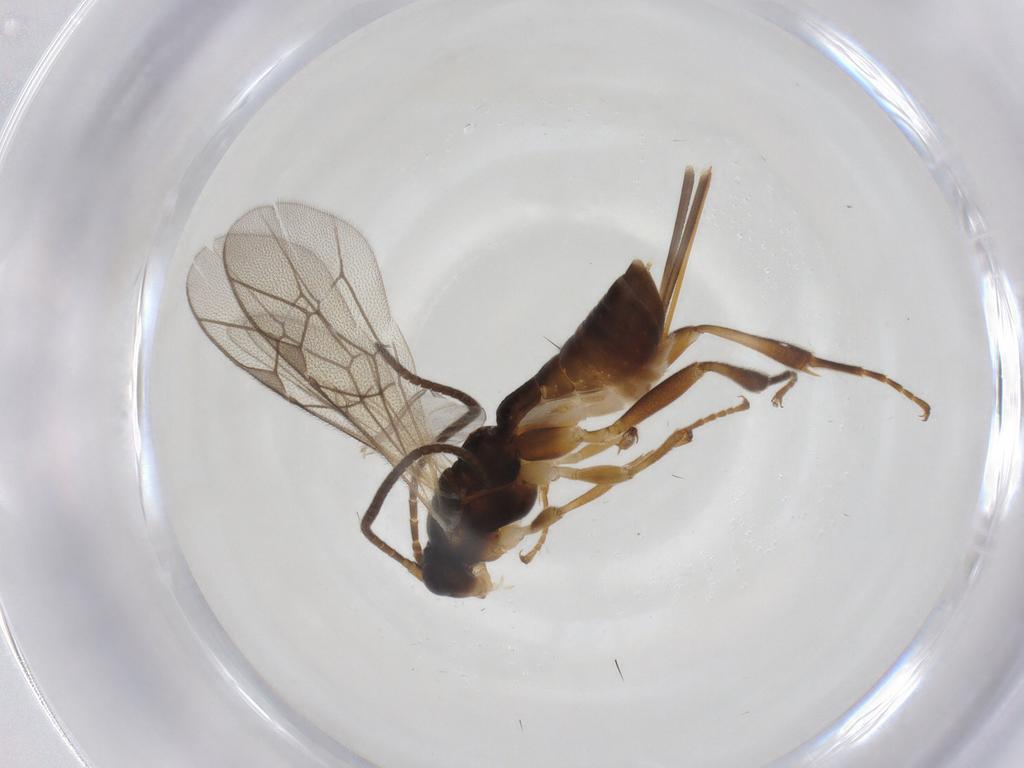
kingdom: Animalia
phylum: Arthropoda
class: Insecta
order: Hymenoptera
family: Ichneumonidae
